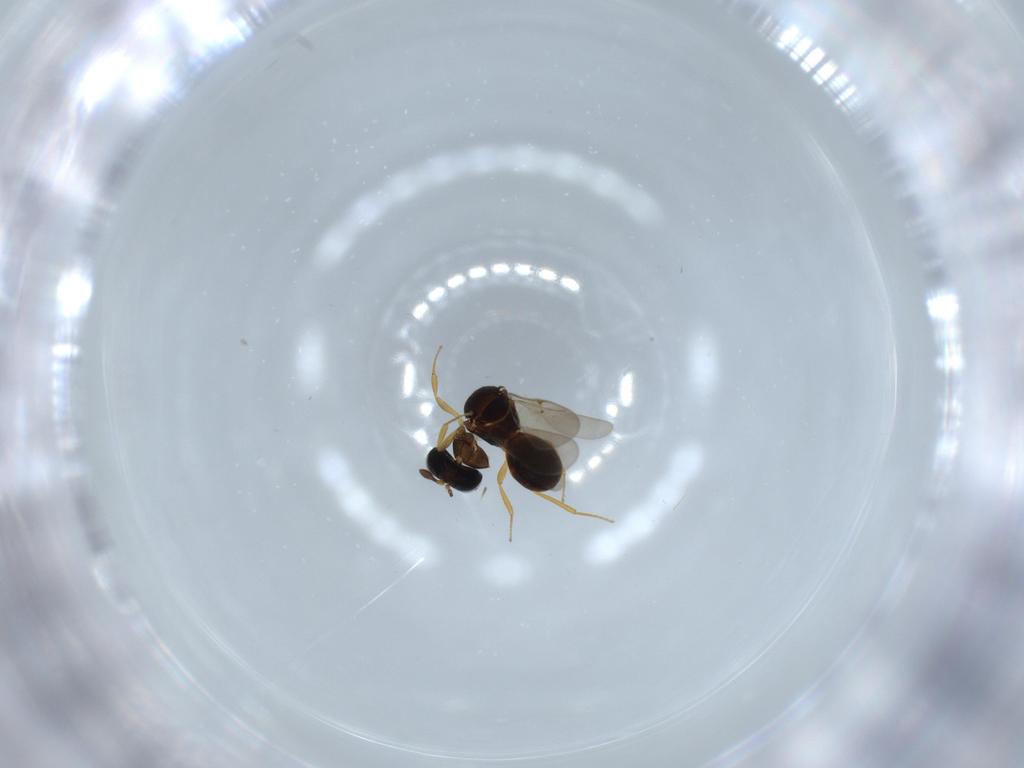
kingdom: Animalia
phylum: Arthropoda
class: Insecta
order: Hymenoptera
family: Scelionidae
